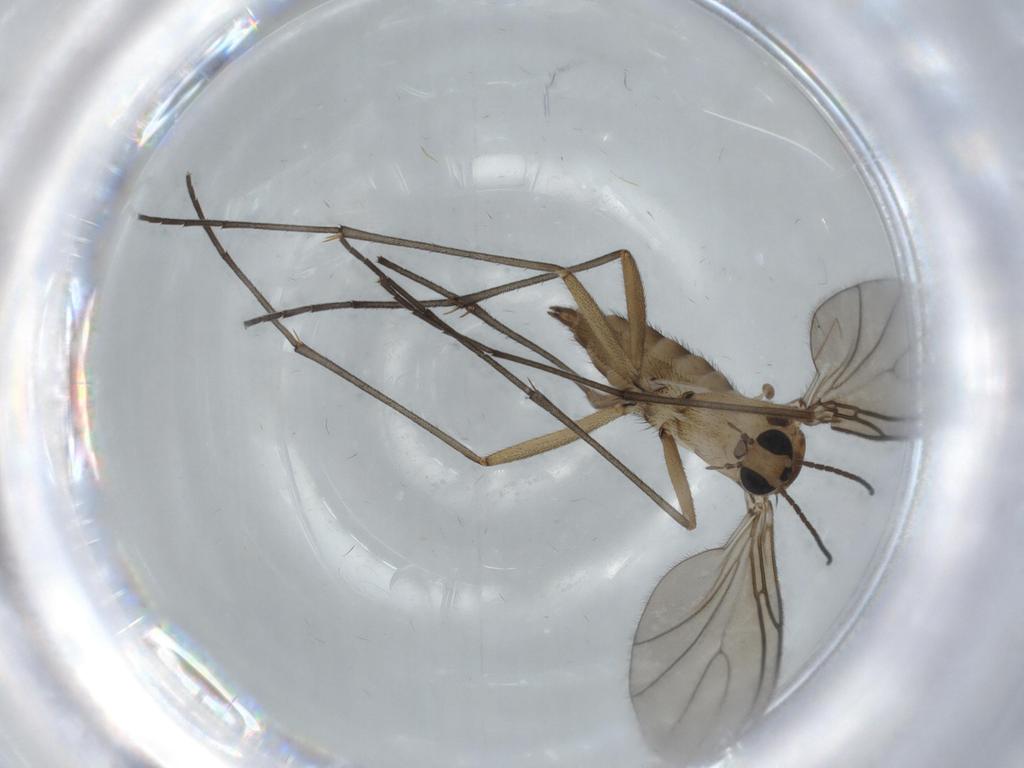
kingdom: Animalia
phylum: Arthropoda
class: Insecta
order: Diptera
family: Sciaridae
